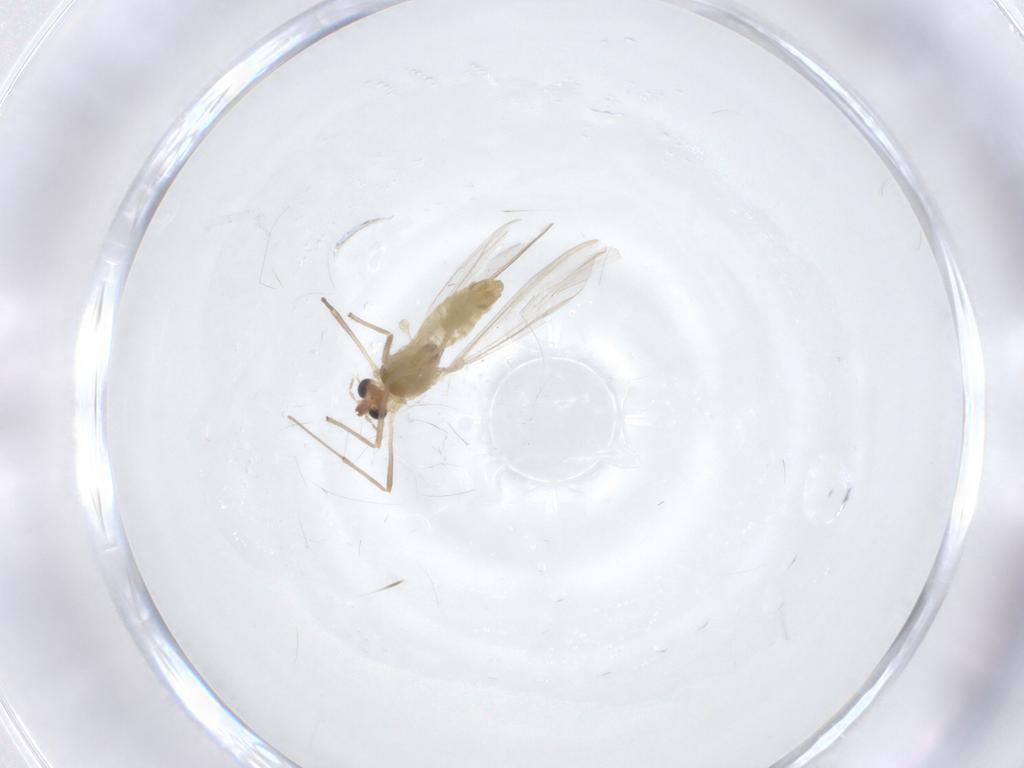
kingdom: Animalia
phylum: Arthropoda
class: Insecta
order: Diptera
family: Chironomidae
